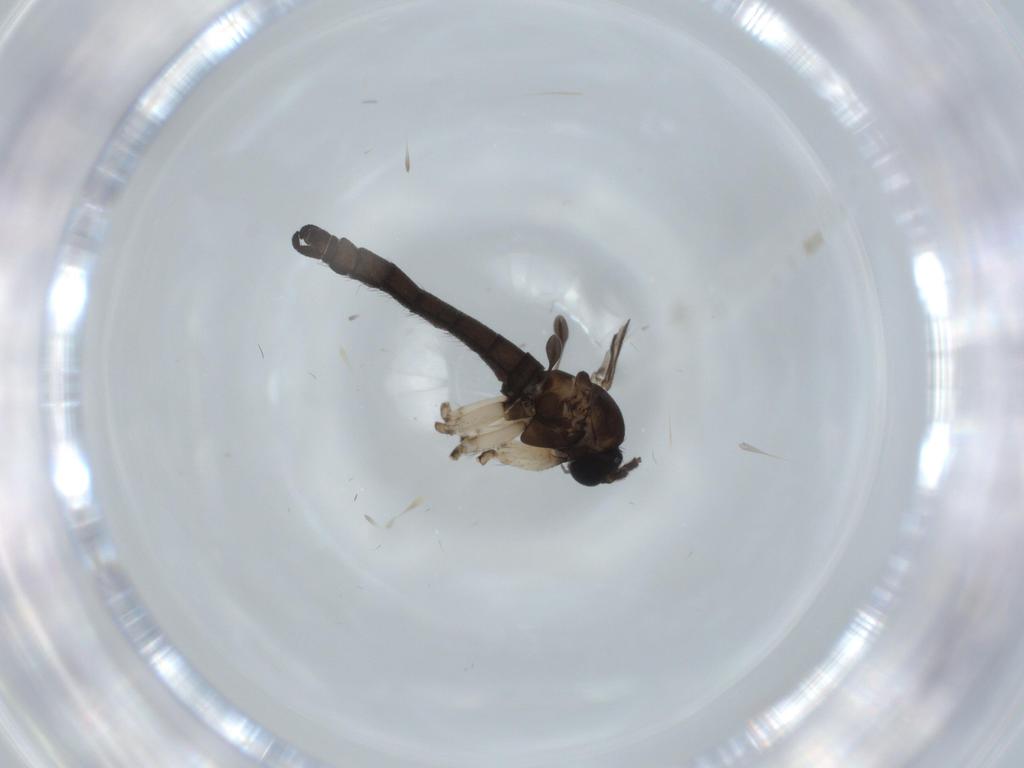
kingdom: Animalia
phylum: Arthropoda
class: Insecta
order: Diptera
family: Sciaridae
